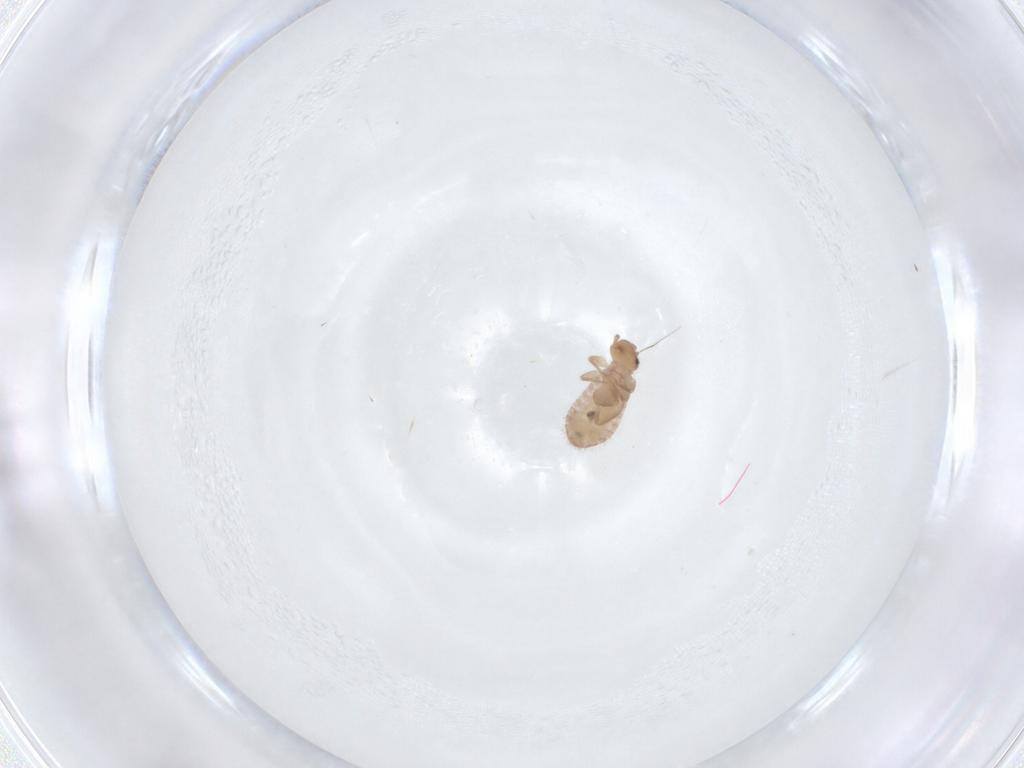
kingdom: Animalia
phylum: Arthropoda
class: Insecta
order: Psocodea
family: Liposcelididae
